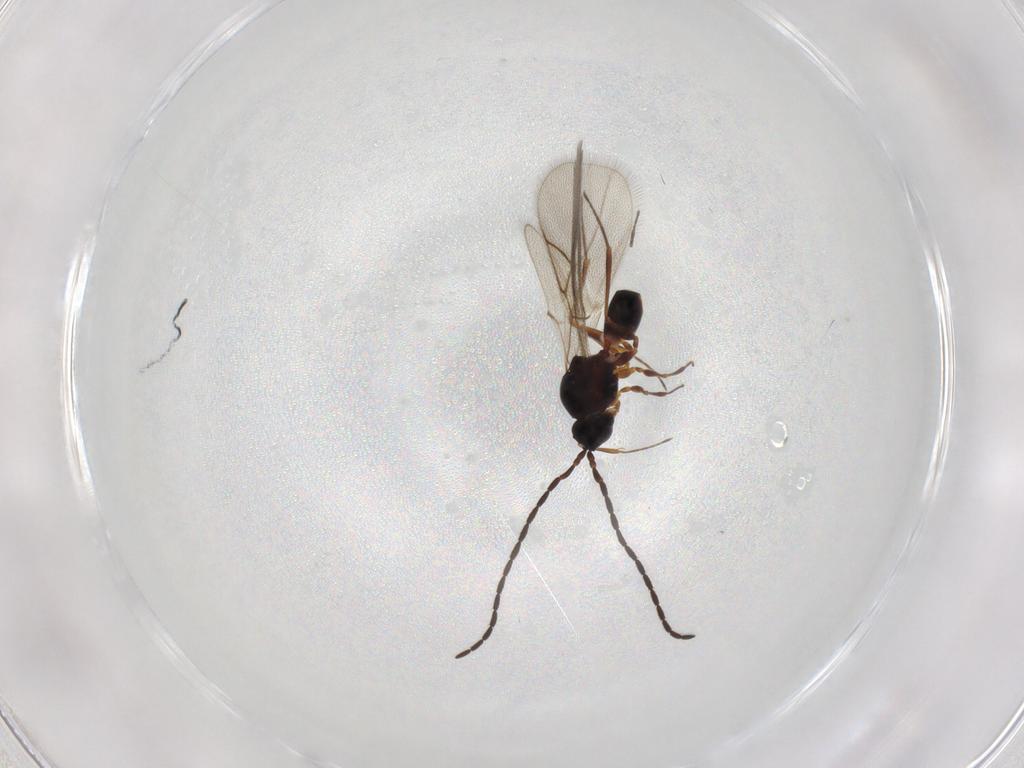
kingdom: Animalia
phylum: Arthropoda
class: Insecta
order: Hymenoptera
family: Figitidae
